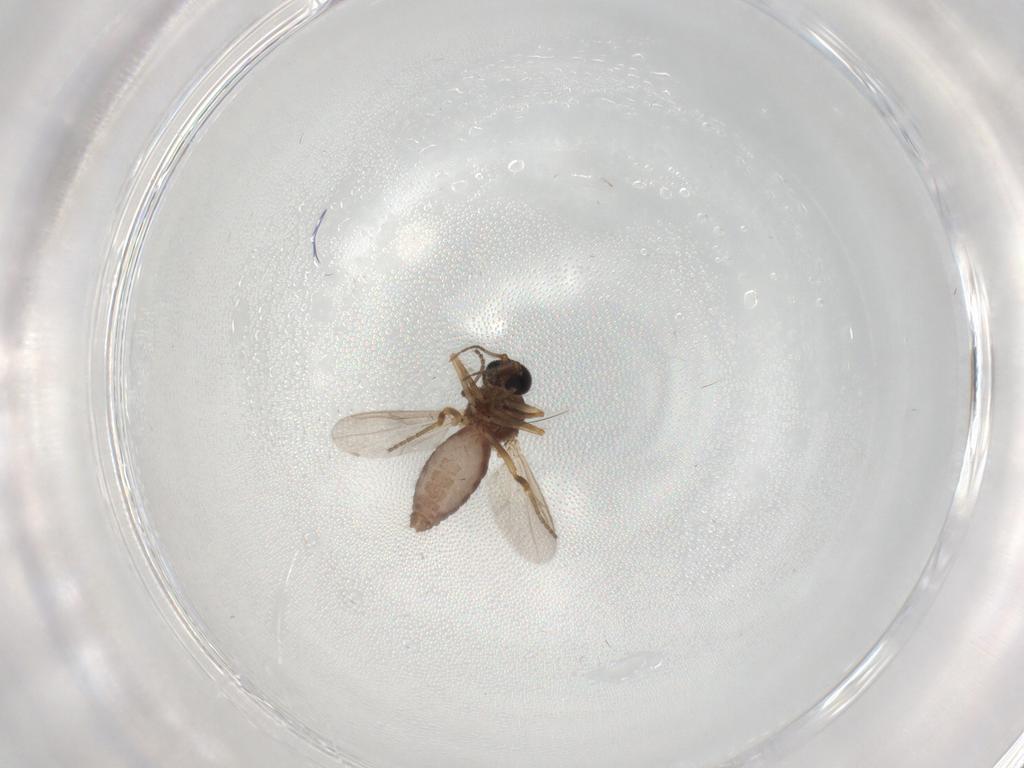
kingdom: Animalia
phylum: Arthropoda
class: Insecta
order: Diptera
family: Ceratopogonidae
